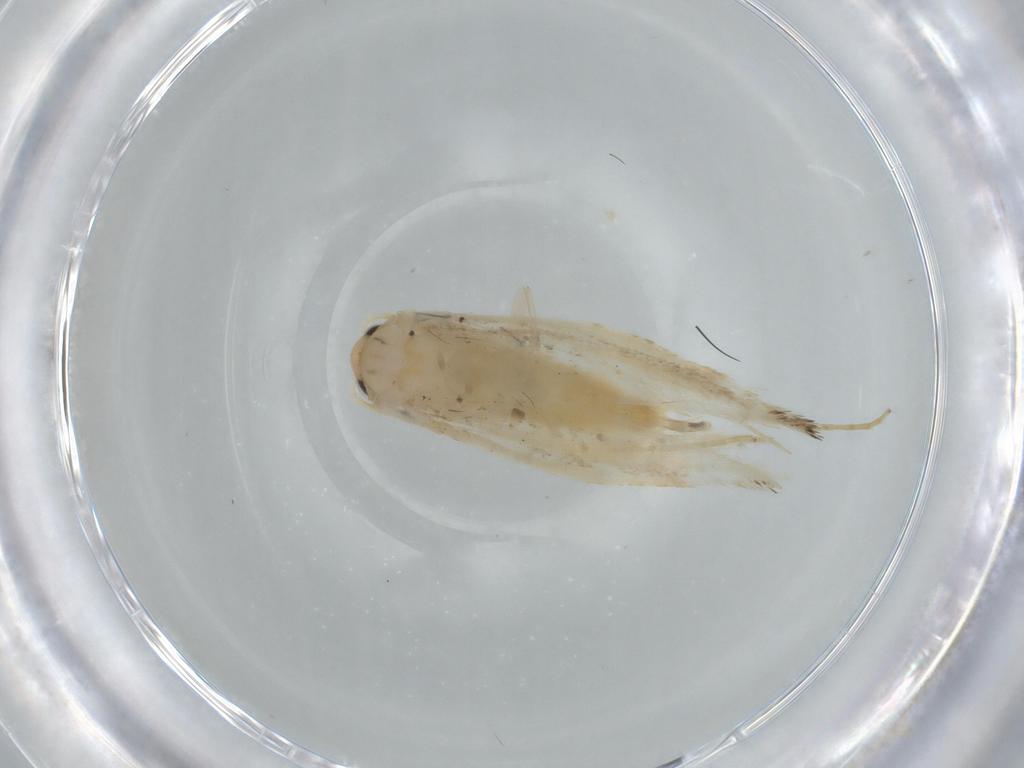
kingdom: Animalia
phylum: Arthropoda
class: Insecta
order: Lepidoptera
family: Tineidae
